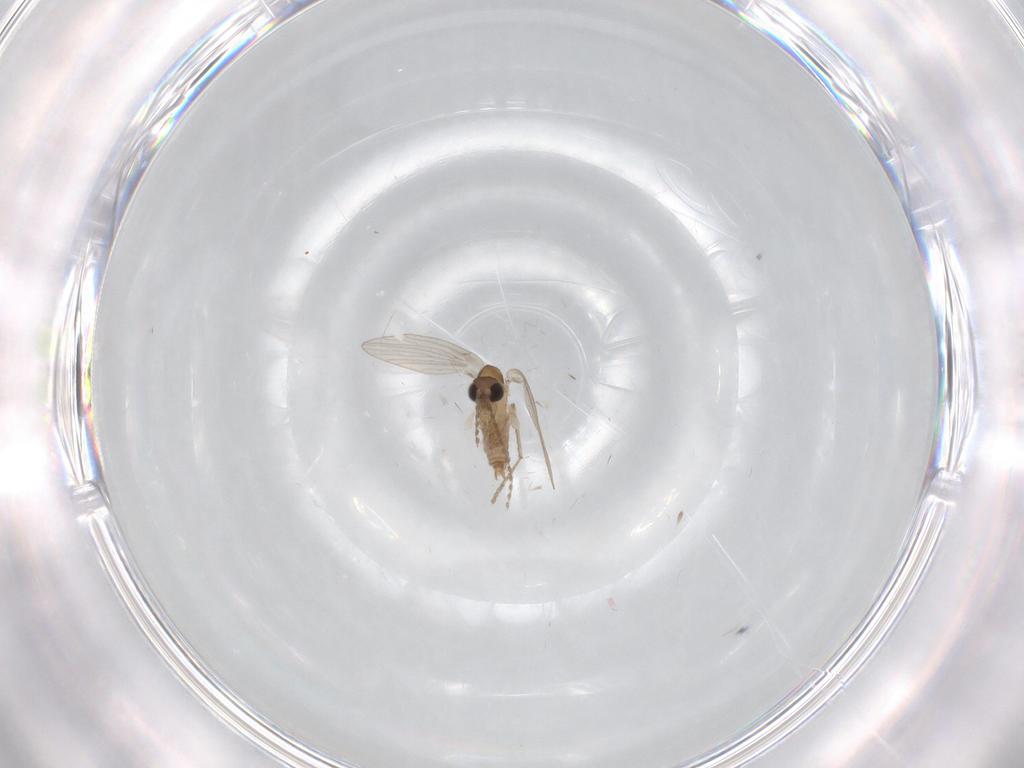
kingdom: Animalia
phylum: Arthropoda
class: Insecta
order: Diptera
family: Psychodidae
